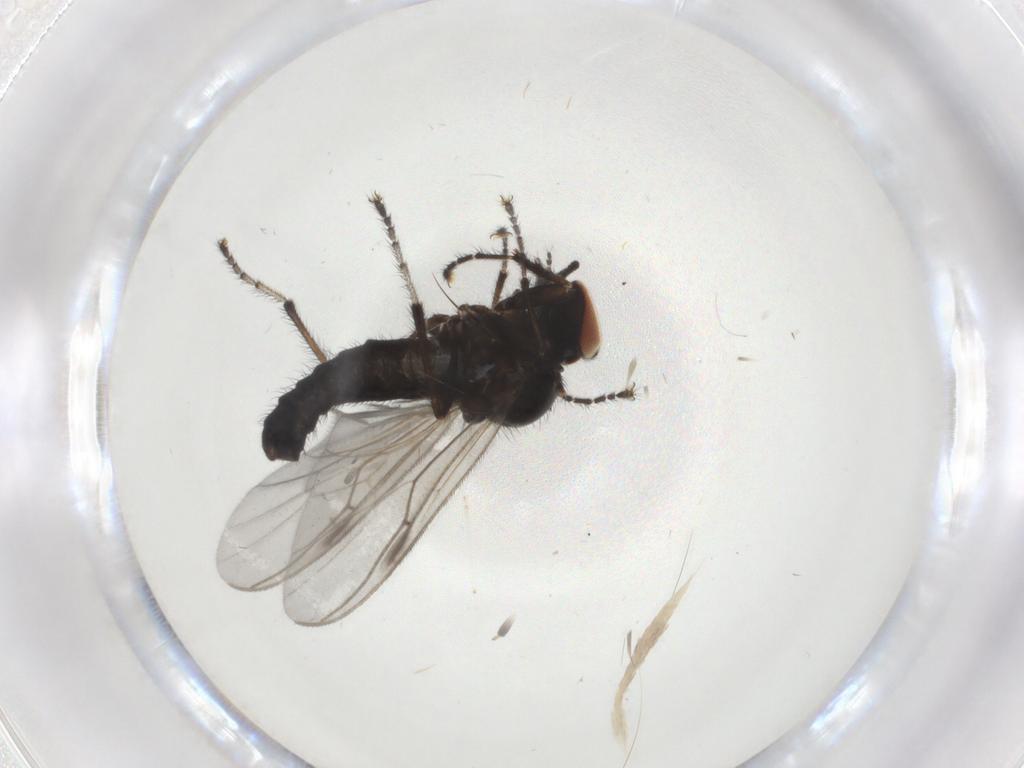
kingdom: Animalia
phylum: Arthropoda
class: Insecta
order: Diptera
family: Bibionidae
